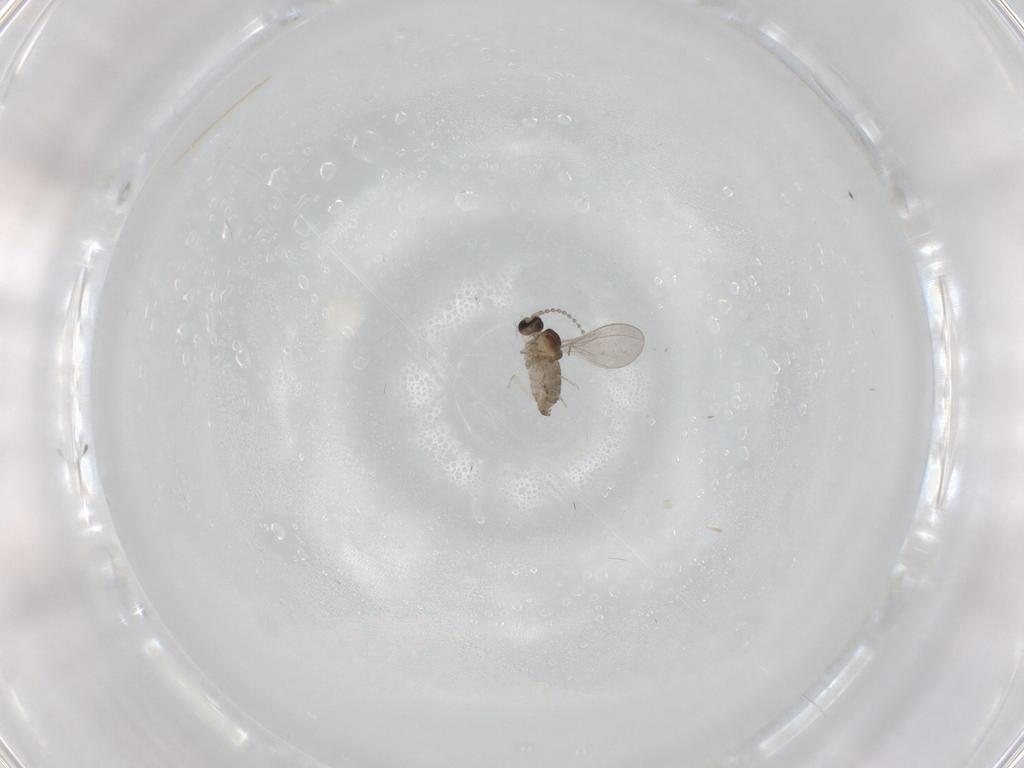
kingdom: Animalia
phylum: Arthropoda
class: Insecta
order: Diptera
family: Cecidomyiidae
